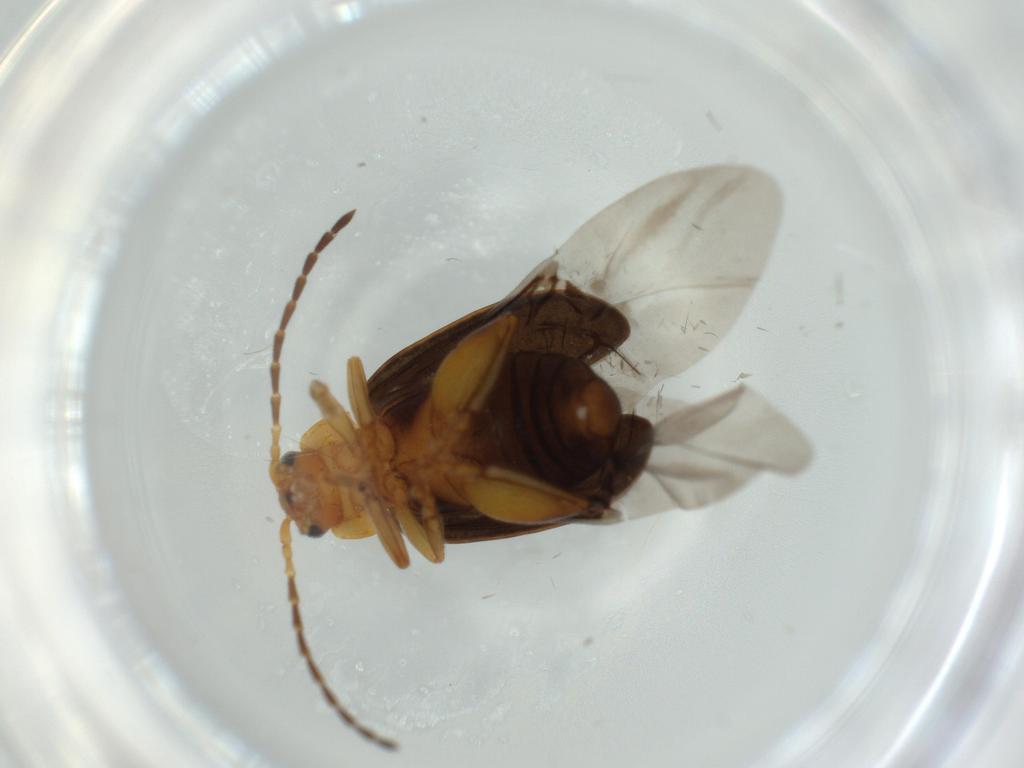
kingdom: Animalia
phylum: Arthropoda
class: Insecta
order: Coleoptera
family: Chrysomelidae
